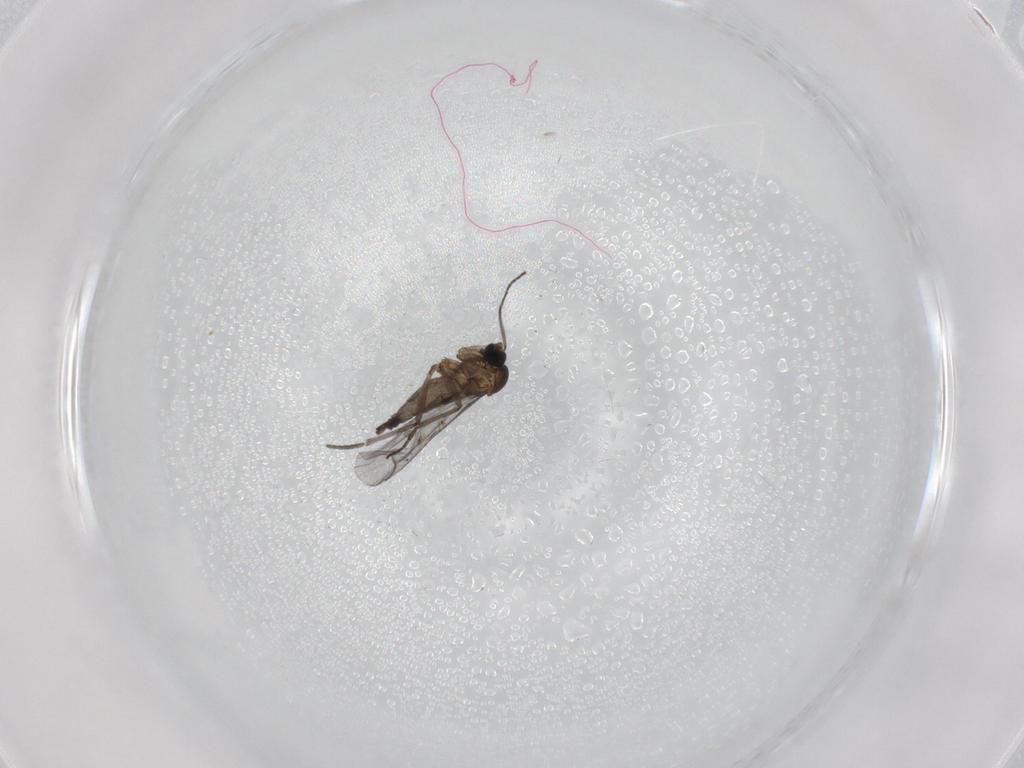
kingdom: Animalia
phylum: Arthropoda
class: Insecta
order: Diptera
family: Sciaridae
